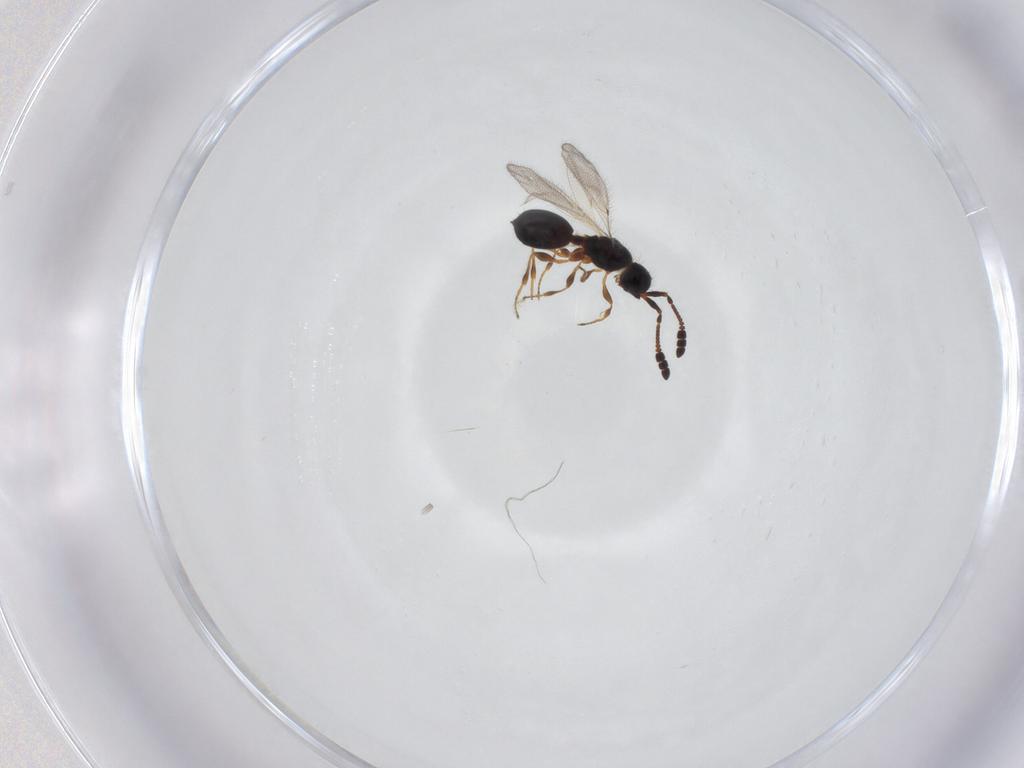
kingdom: Animalia
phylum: Arthropoda
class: Insecta
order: Hymenoptera
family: Diapriidae
